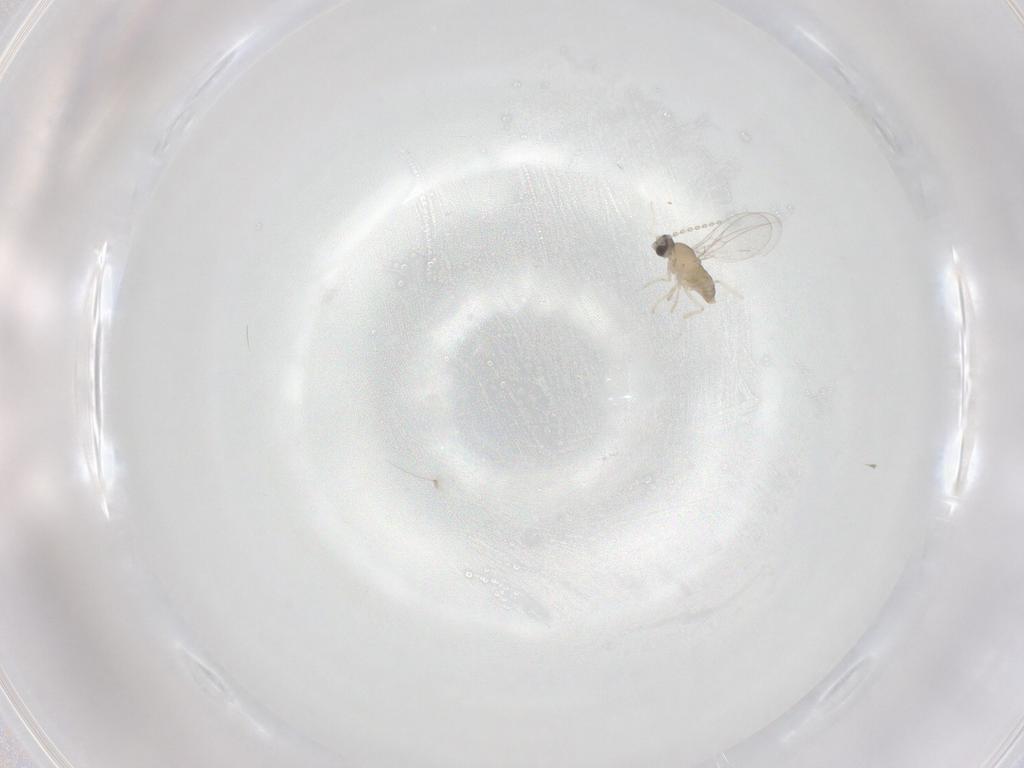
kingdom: Animalia
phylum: Arthropoda
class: Insecta
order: Diptera
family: Cecidomyiidae
